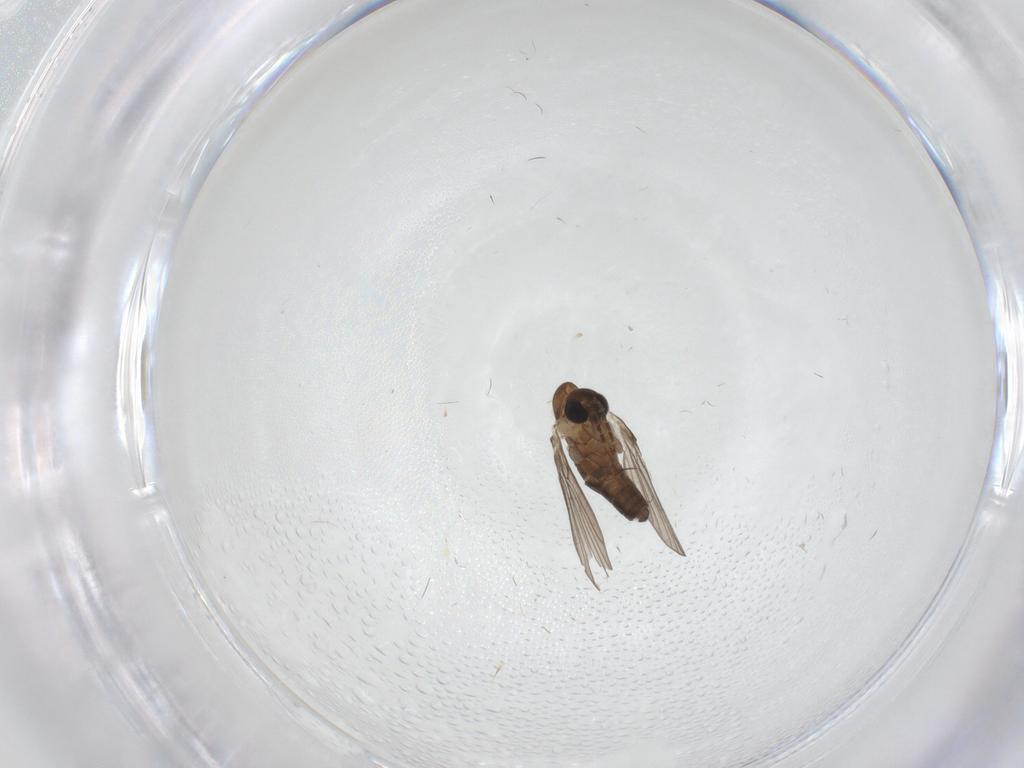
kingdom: Animalia
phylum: Arthropoda
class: Insecta
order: Diptera
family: Psychodidae
